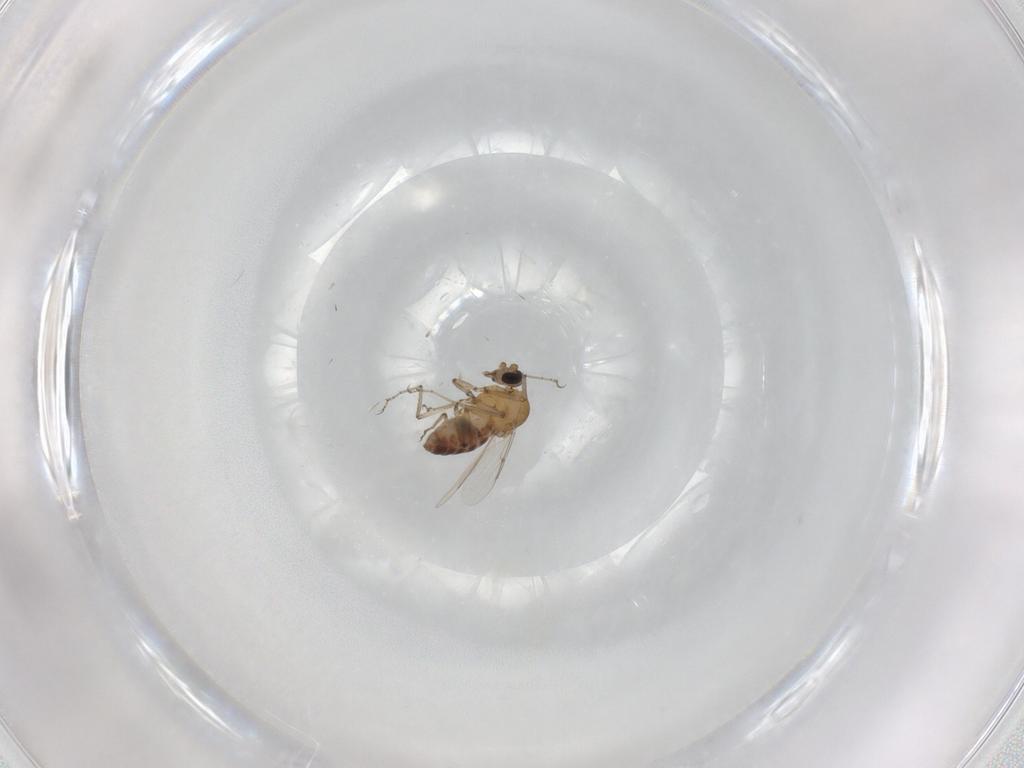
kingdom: Animalia
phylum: Arthropoda
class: Insecta
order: Diptera
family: Ceratopogonidae
